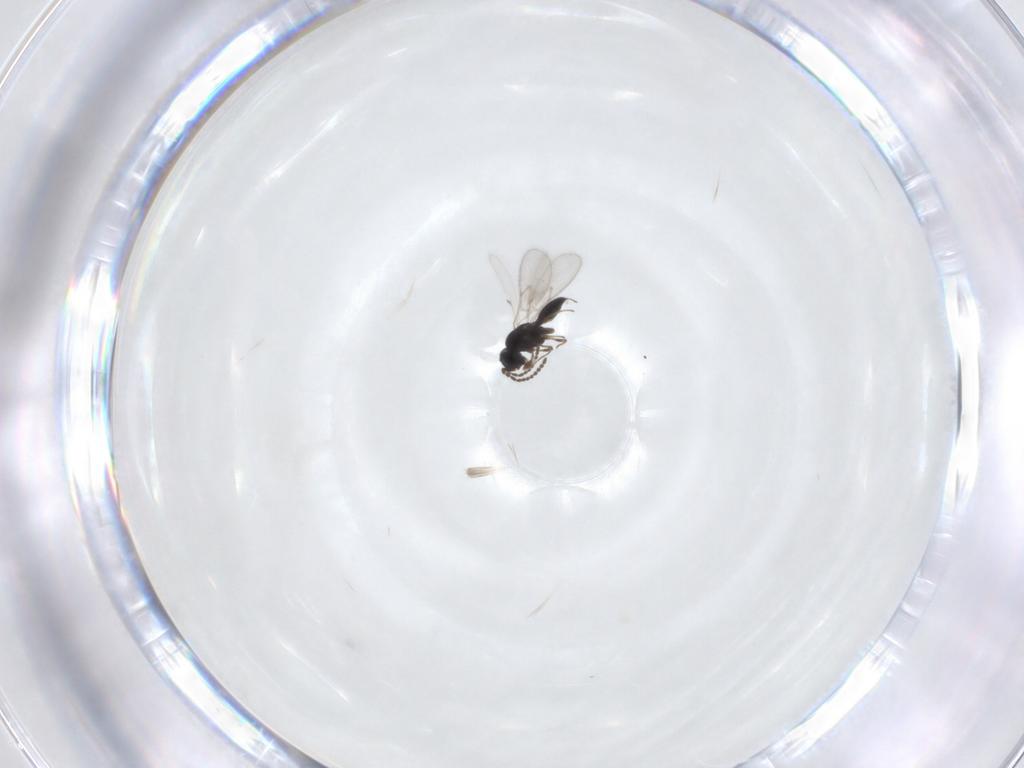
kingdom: Animalia
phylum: Arthropoda
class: Insecta
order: Hymenoptera
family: Scelionidae
